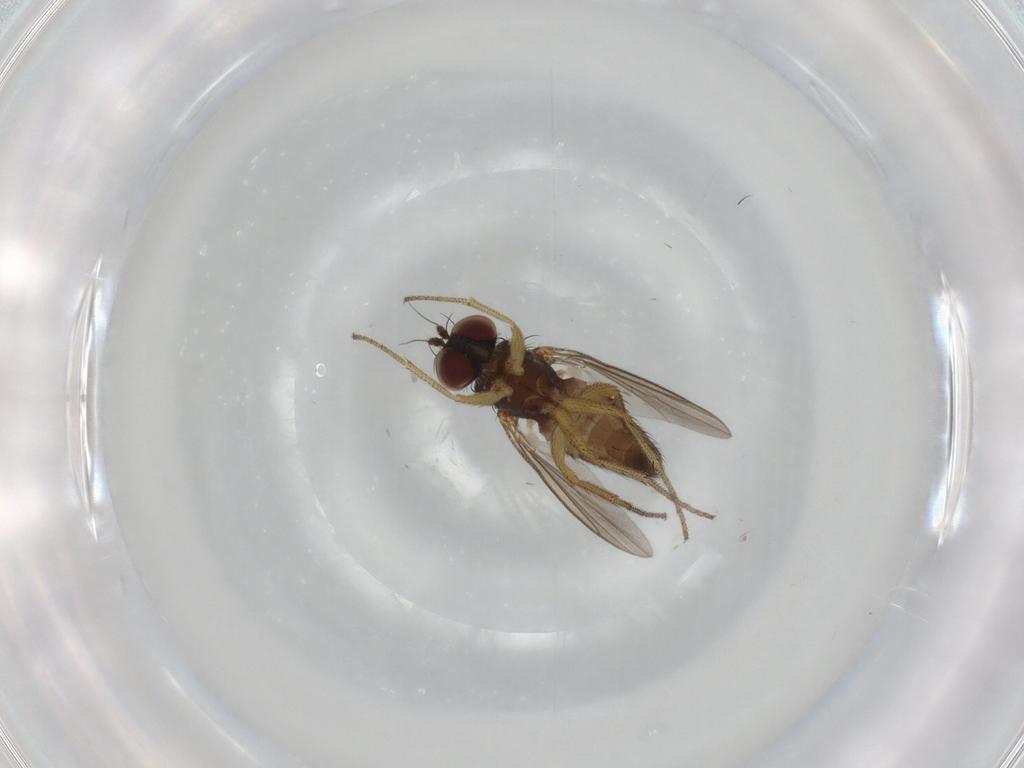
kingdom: Animalia
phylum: Arthropoda
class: Insecta
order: Diptera
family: Dolichopodidae
